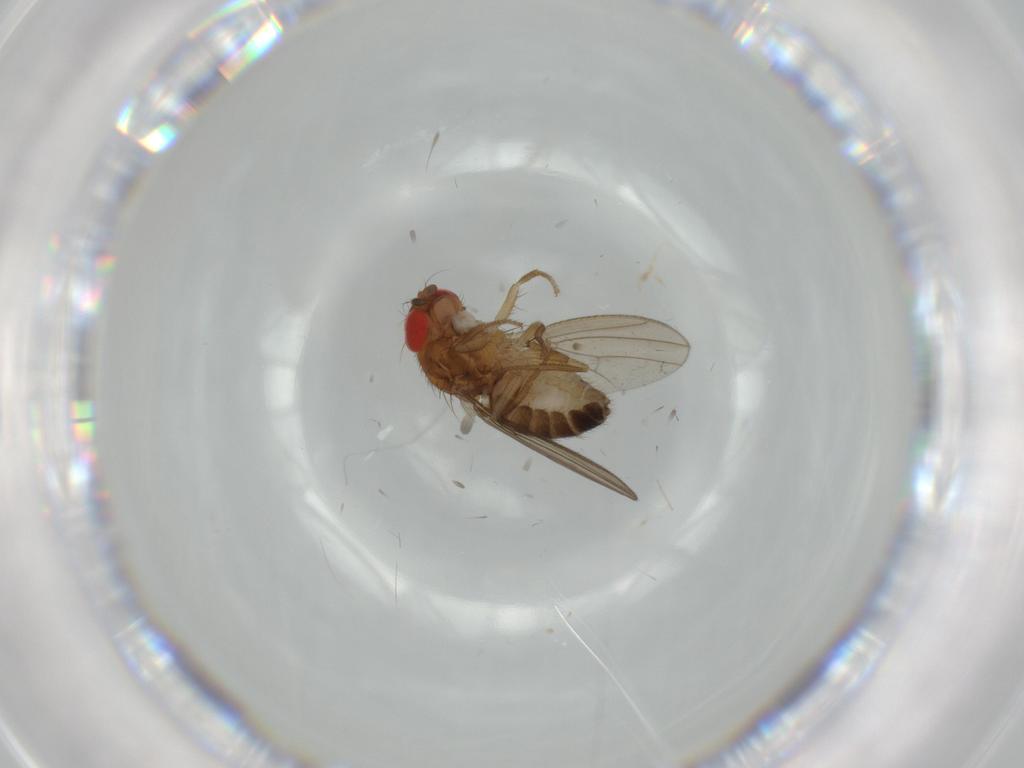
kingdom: Animalia
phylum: Arthropoda
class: Insecta
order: Diptera
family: Drosophilidae
